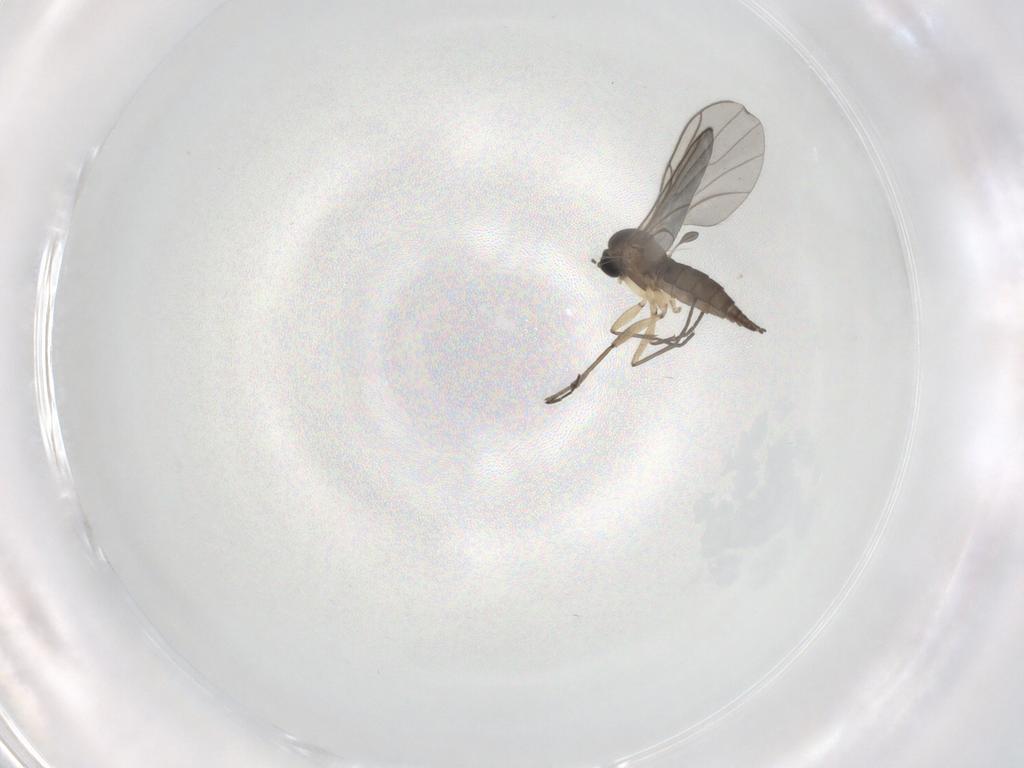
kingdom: Animalia
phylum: Arthropoda
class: Insecta
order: Diptera
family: Sciaridae
